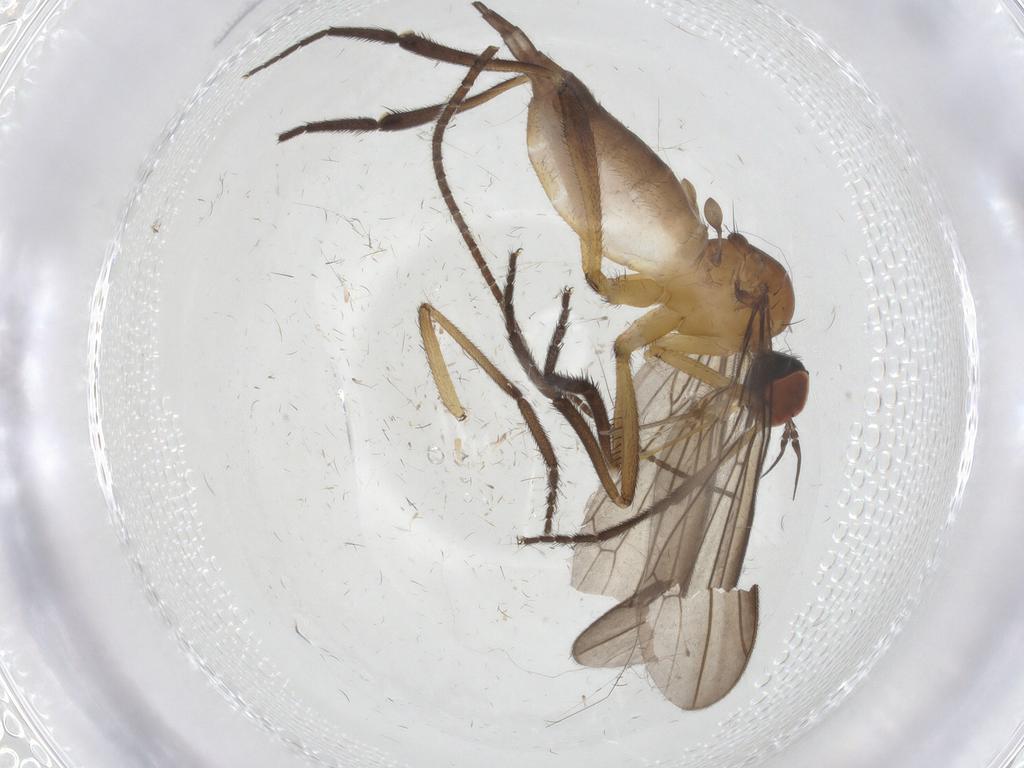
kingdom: Animalia
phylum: Arthropoda
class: Insecta
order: Diptera
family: Empididae
